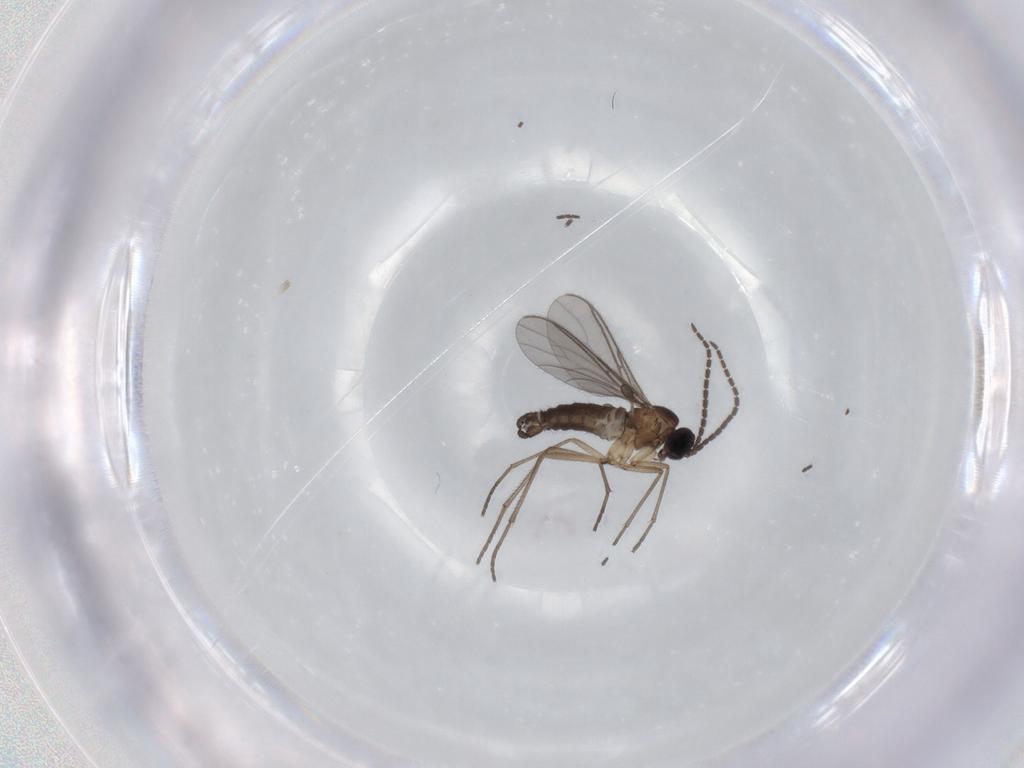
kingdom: Animalia
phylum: Arthropoda
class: Insecta
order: Diptera
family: Sciaridae
